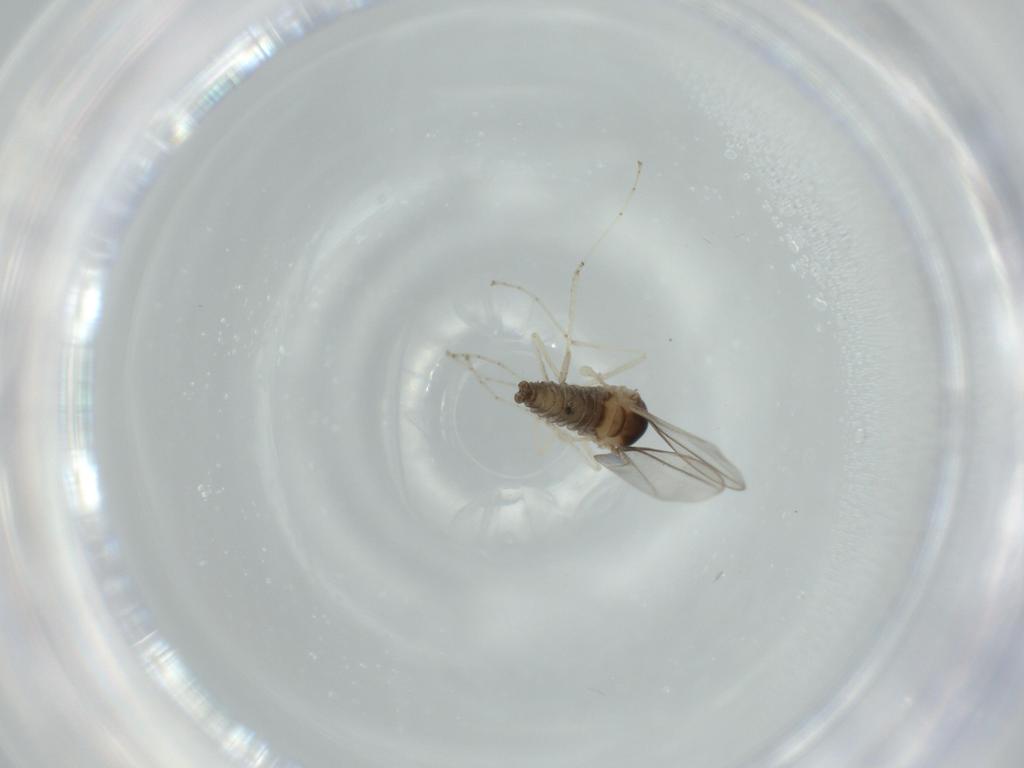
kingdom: Animalia
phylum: Arthropoda
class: Insecta
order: Diptera
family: Cecidomyiidae
